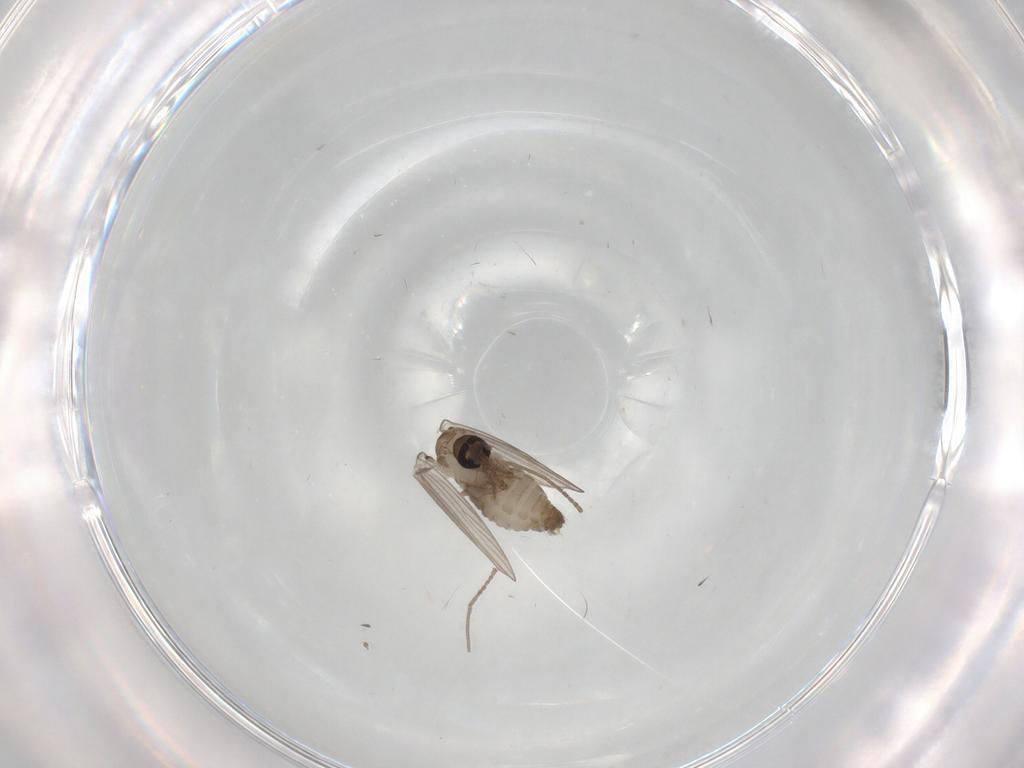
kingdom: Animalia
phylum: Arthropoda
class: Insecta
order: Diptera
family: Psychodidae
